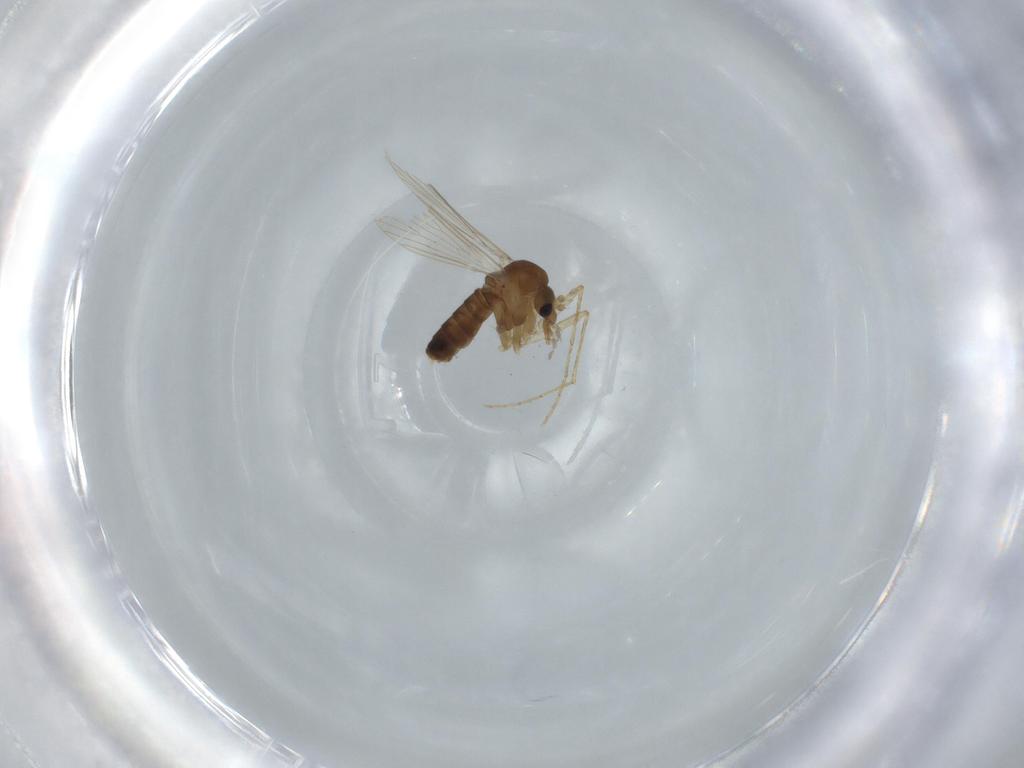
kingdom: Animalia
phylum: Arthropoda
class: Insecta
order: Diptera
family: Psychodidae
